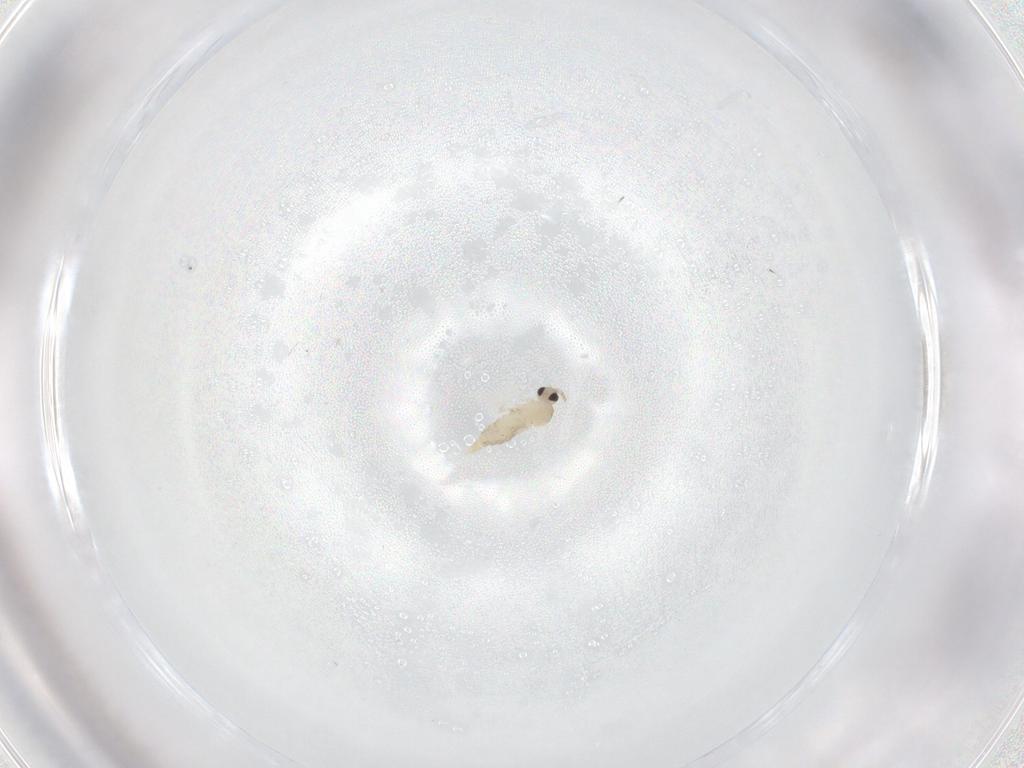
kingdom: Animalia
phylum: Arthropoda
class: Insecta
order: Diptera
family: Cecidomyiidae
